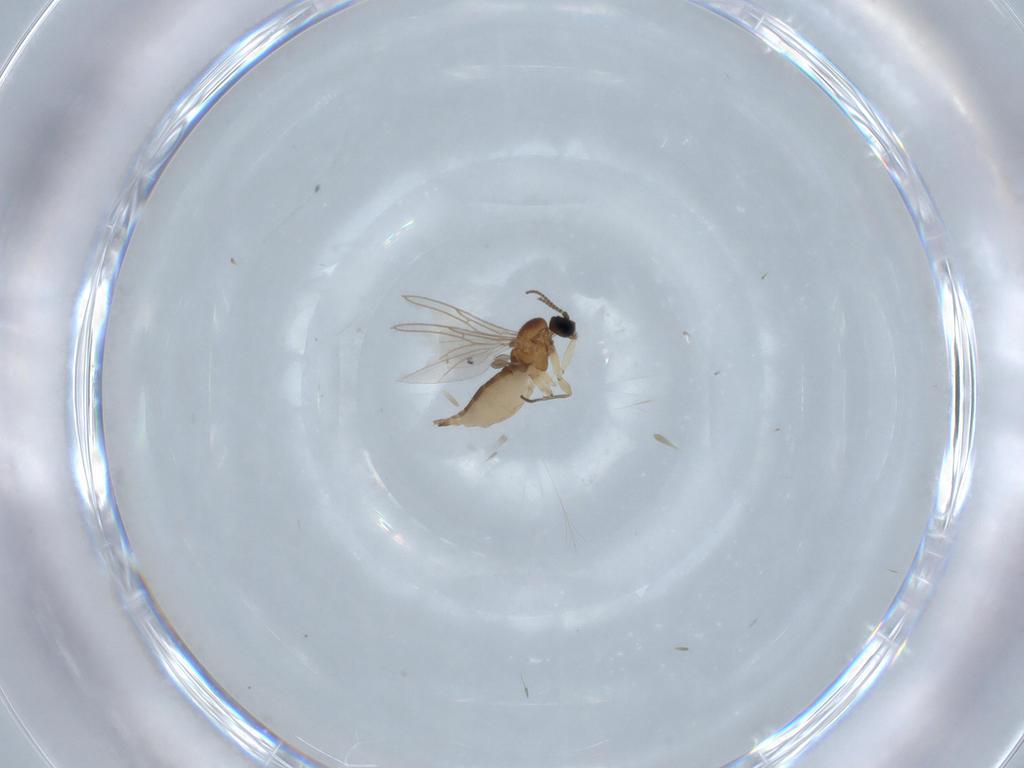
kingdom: Animalia
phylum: Arthropoda
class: Insecta
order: Diptera
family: Sciaridae
